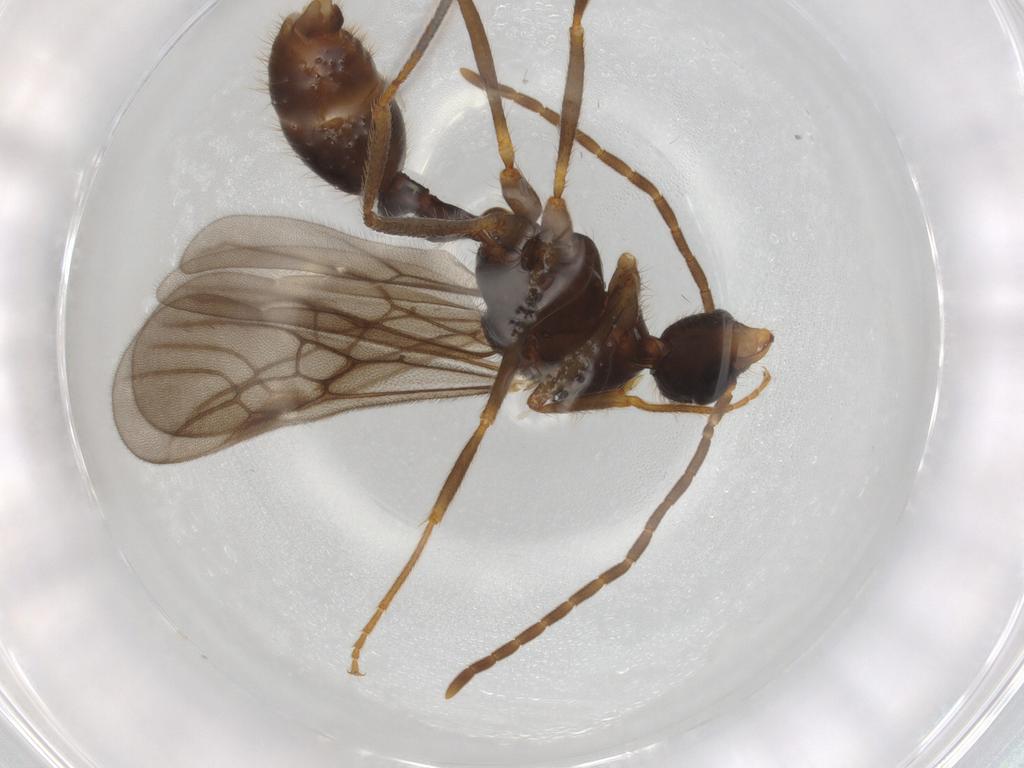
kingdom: Animalia
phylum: Arthropoda
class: Insecta
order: Hymenoptera
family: Formicidae
